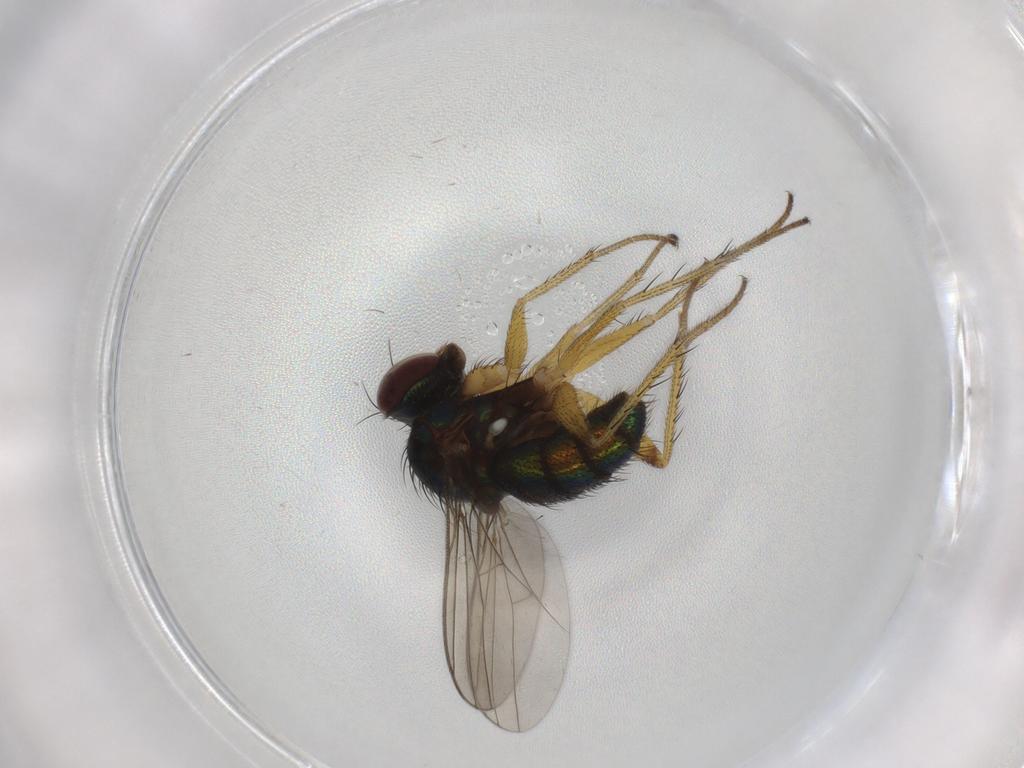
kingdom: Animalia
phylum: Arthropoda
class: Insecta
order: Diptera
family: Dolichopodidae
